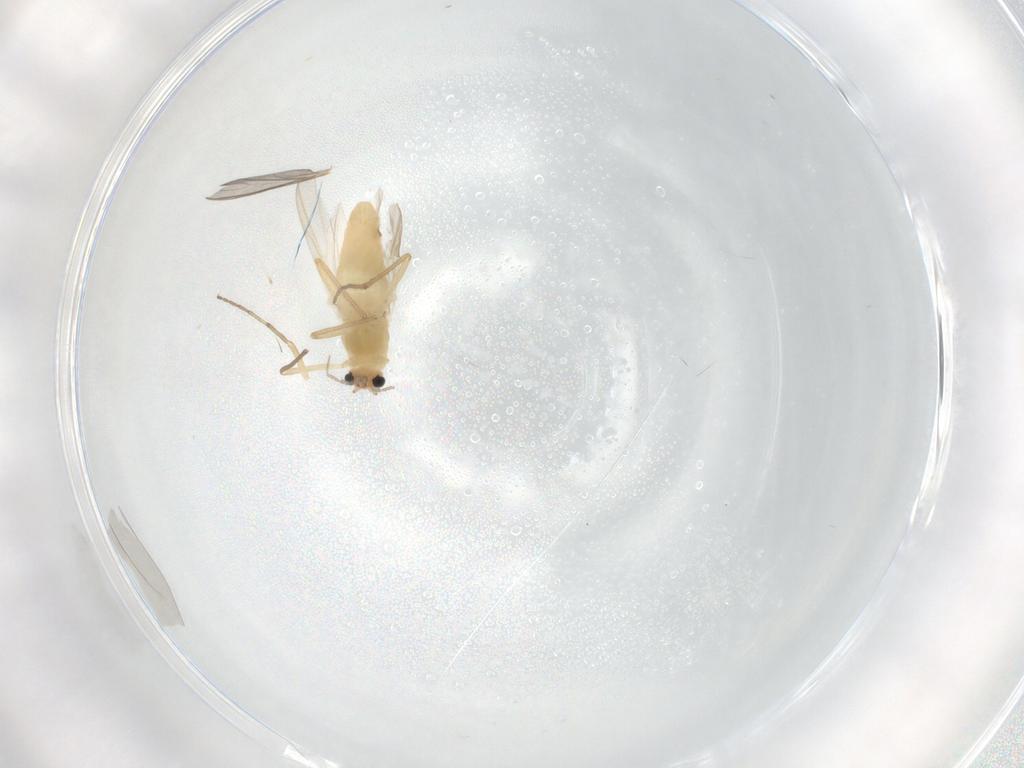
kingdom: Animalia
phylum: Arthropoda
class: Insecta
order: Diptera
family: Chironomidae
